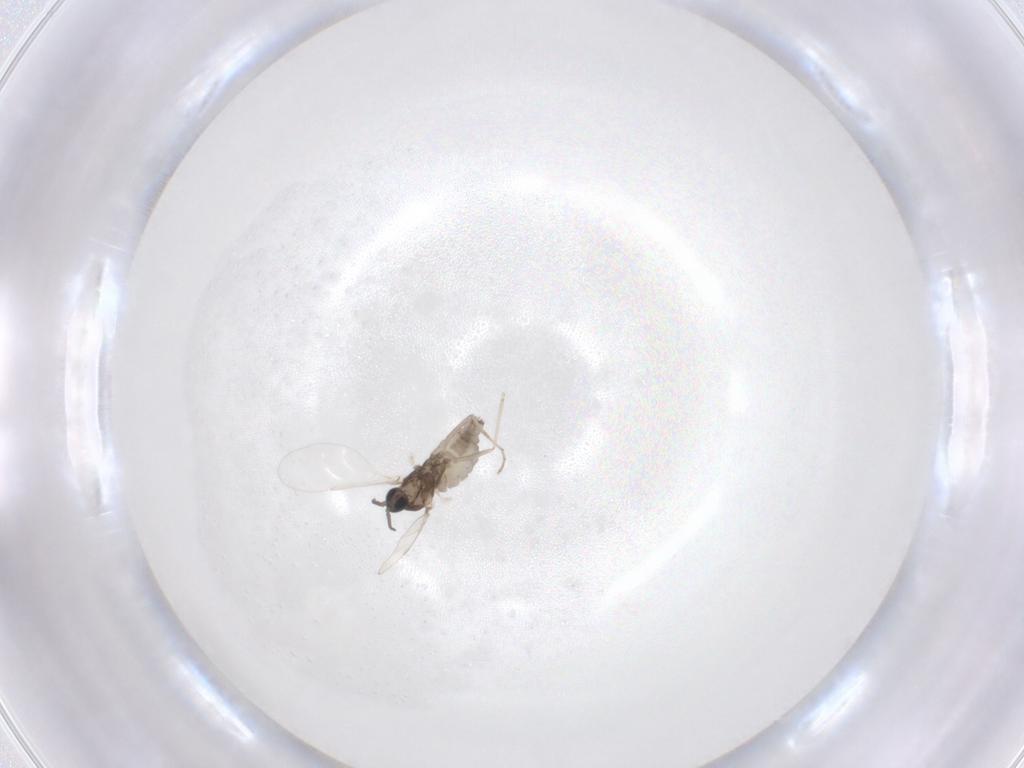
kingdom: Animalia
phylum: Arthropoda
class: Insecta
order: Diptera
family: Cecidomyiidae
